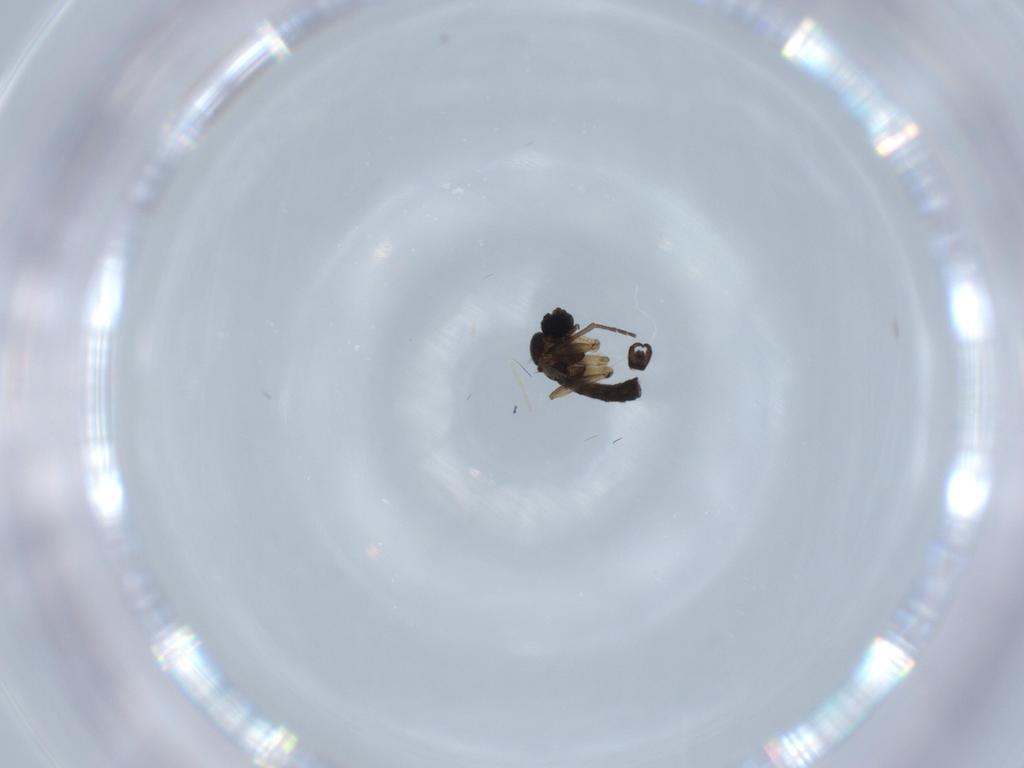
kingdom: Animalia
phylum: Arthropoda
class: Insecta
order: Diptera
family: Sciaridae
